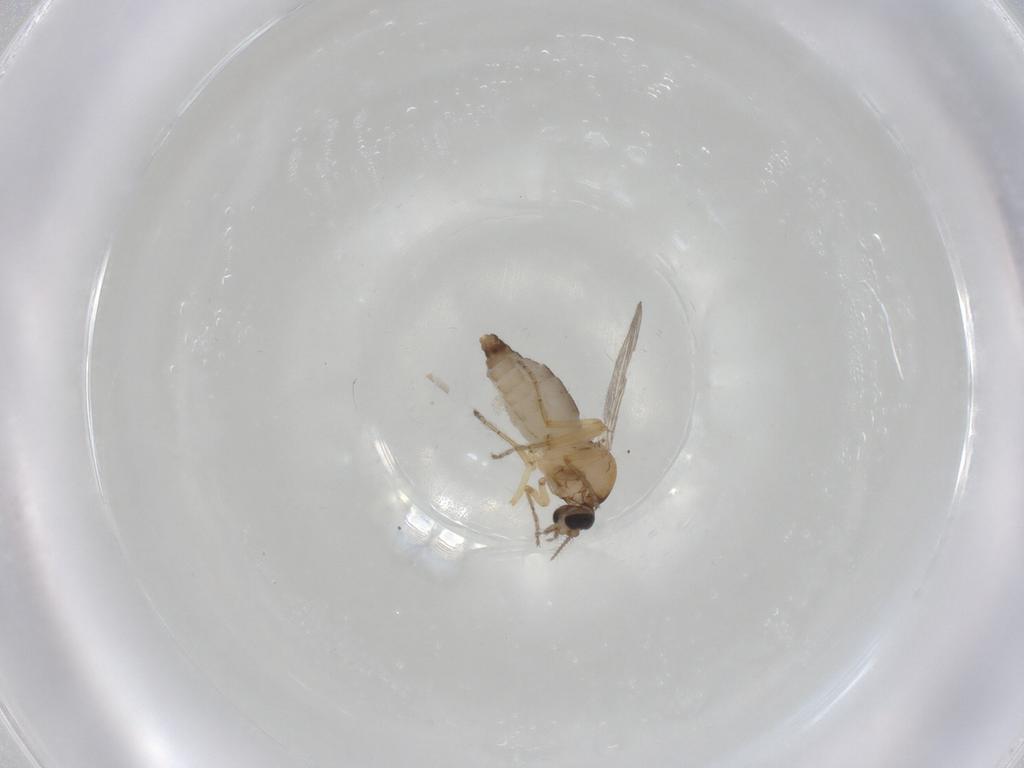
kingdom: Animalia
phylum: Arthropoda
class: Insecta
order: Diptera
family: Ceratopogonidae
